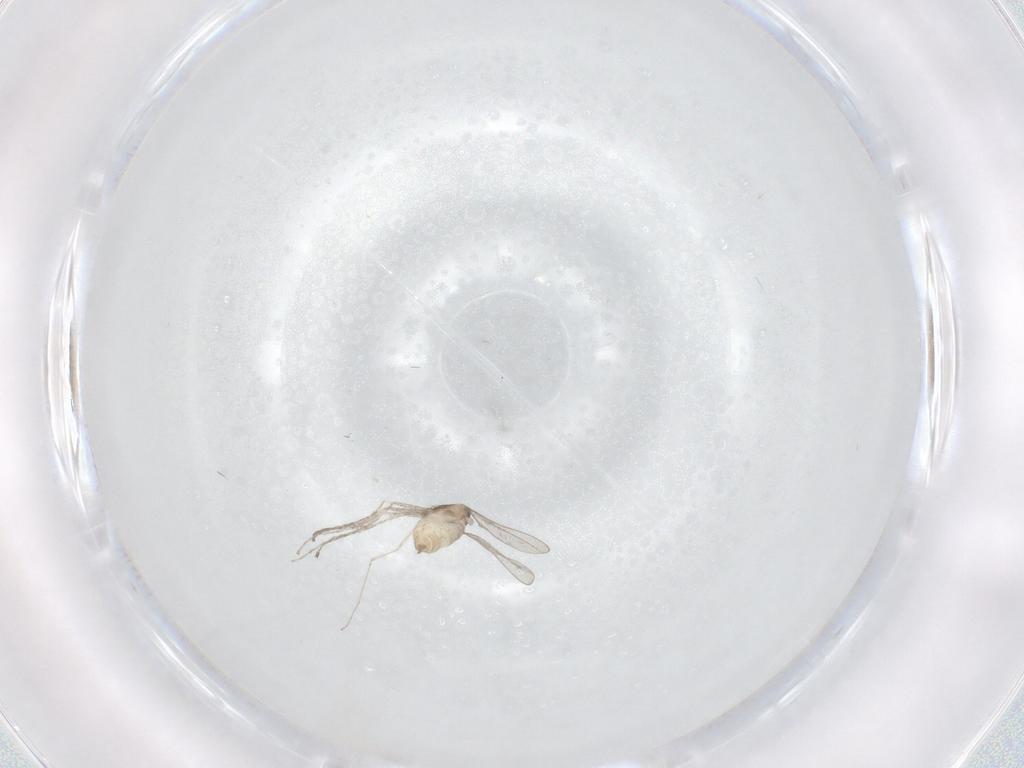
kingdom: Animalia
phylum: Arthropoda
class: Insecta
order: Diptera
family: Cecidomyiidae
